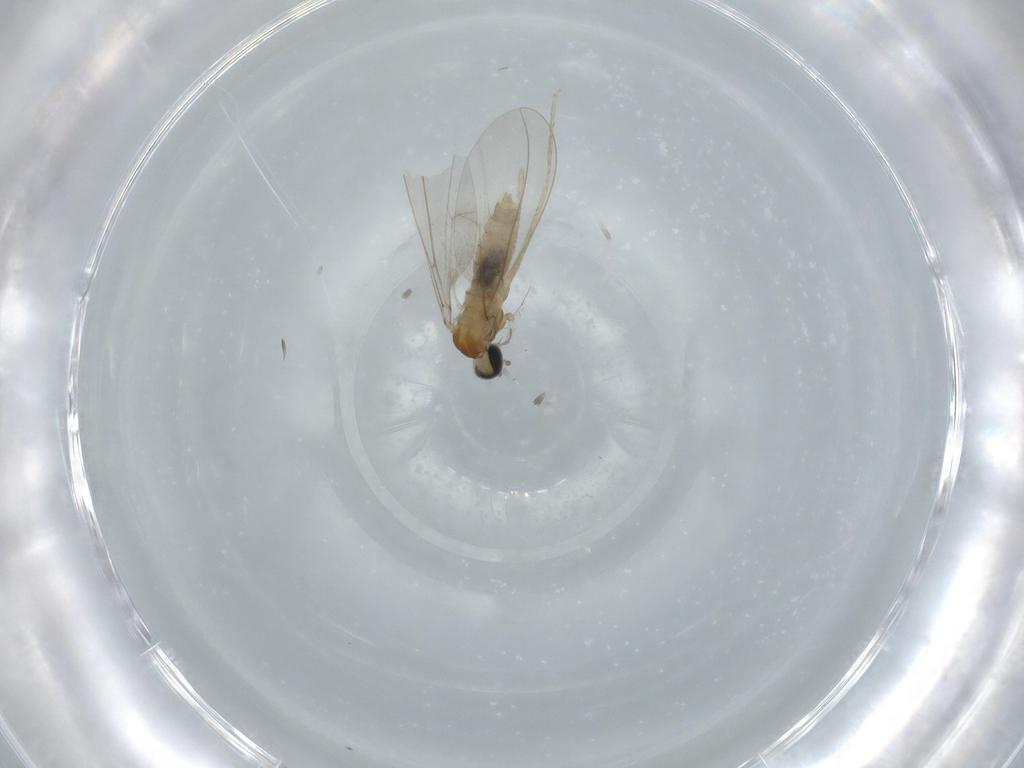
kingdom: Animalia
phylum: Arthropoda
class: Insecta
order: Diptera
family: Cecidomyiidae
